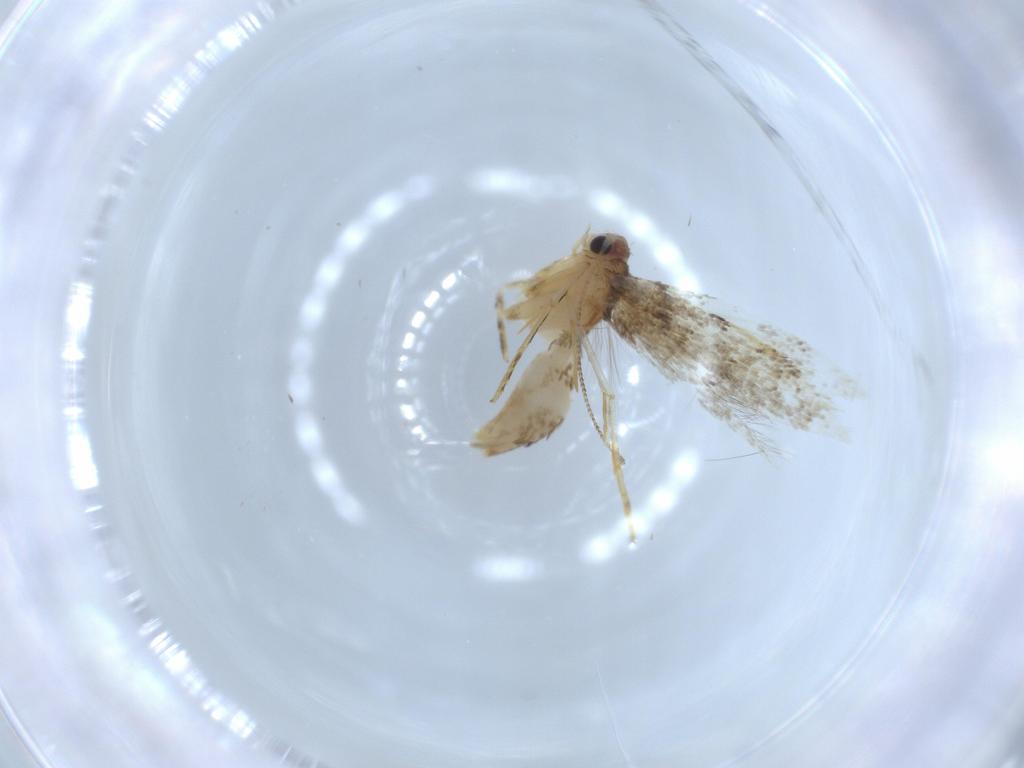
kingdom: Animalia
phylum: Arthropoda
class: Insecta
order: Lepidoptera
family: Tineidae
